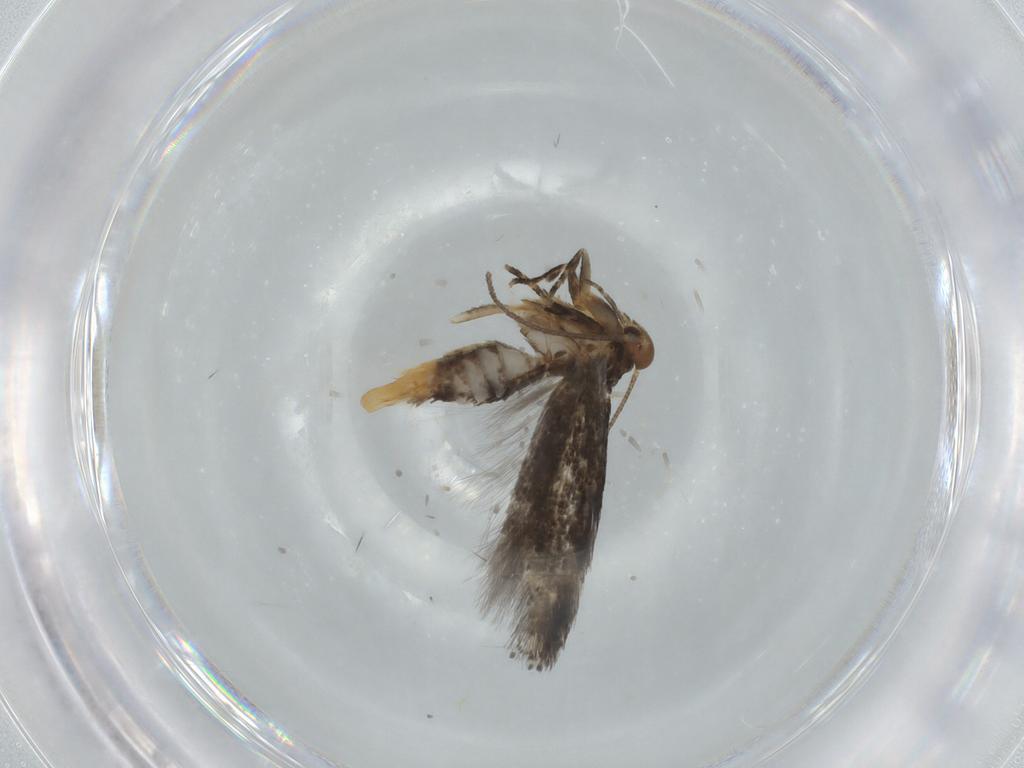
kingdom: Animalia
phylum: Arthropoda
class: Insecta
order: Lepidoptera
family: Elachistidae
